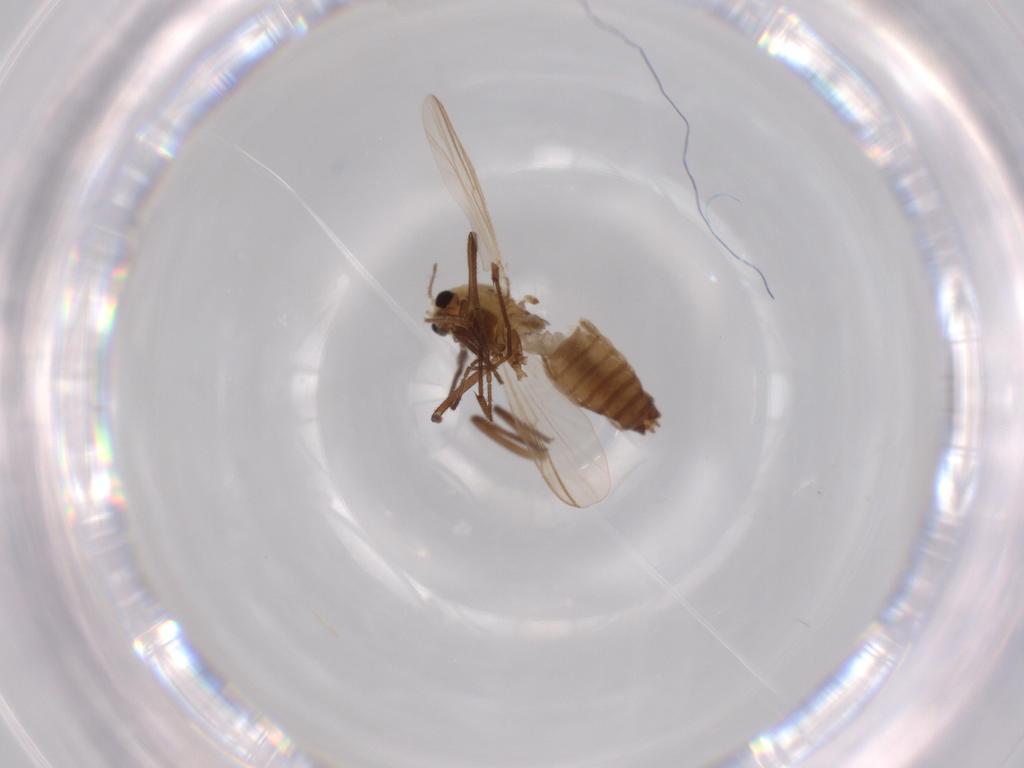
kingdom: Animalia
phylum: Arthropoda
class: Insecta
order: Diptera
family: Chironomidae
